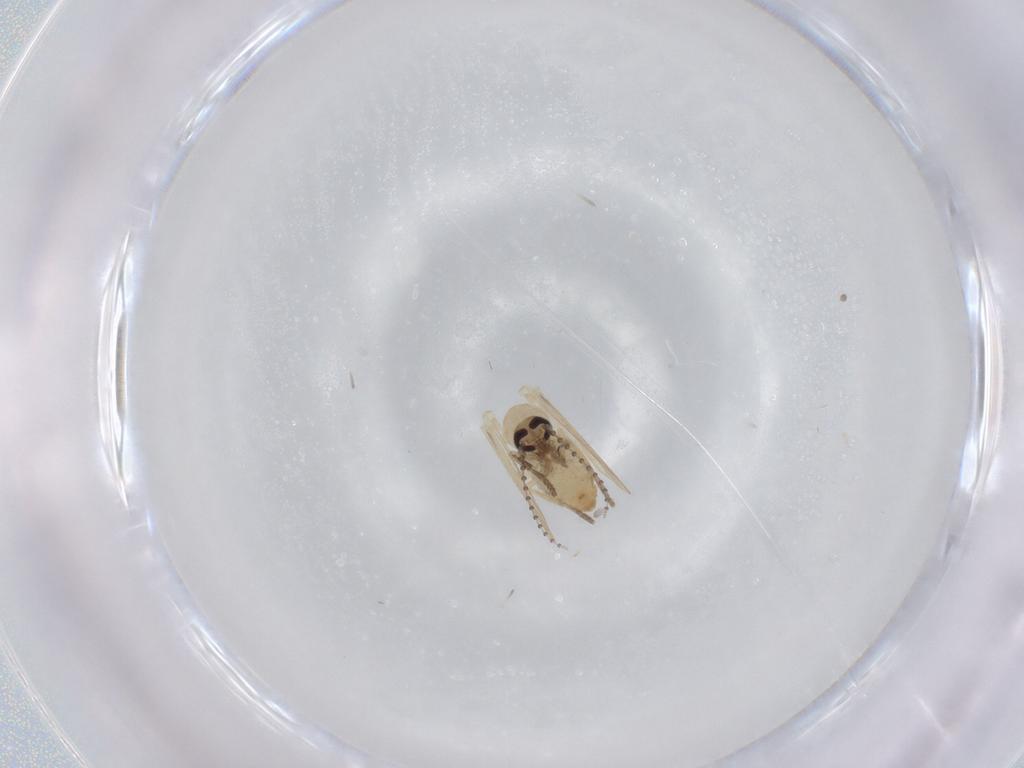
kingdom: Animalia
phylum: Arthropoda
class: Insecta
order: Diptera
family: Psychodidae
